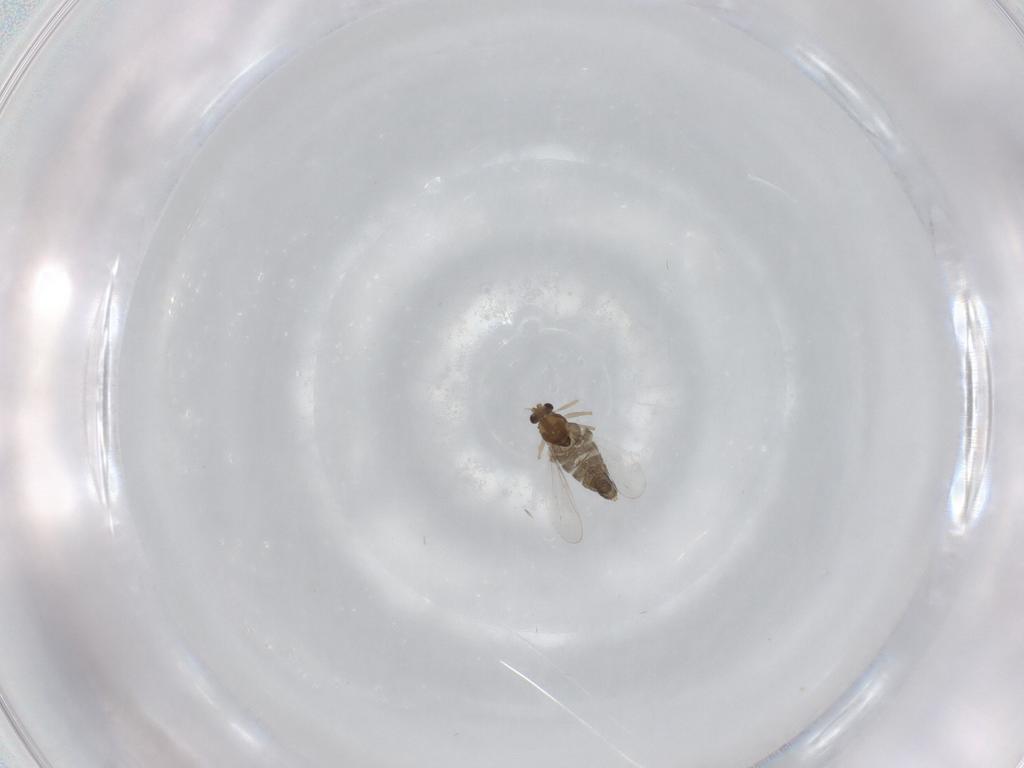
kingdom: Animalia
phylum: Arthropoda
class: Insecta
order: Diptera
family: Chironomidae
